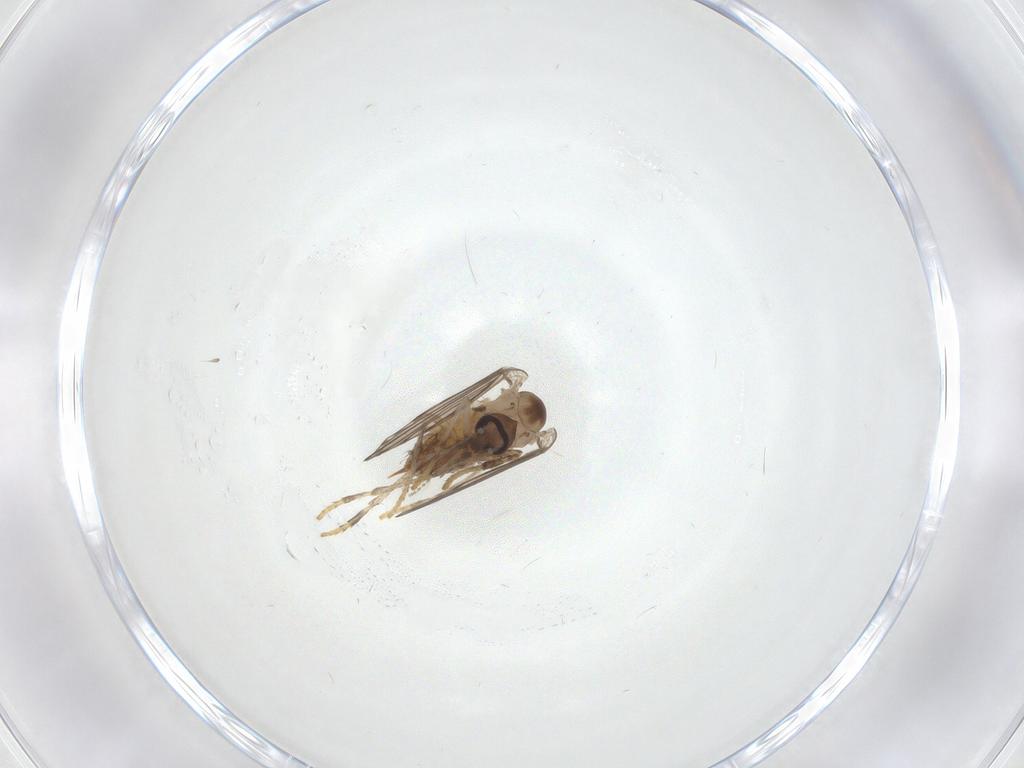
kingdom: Animalia
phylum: Arthropoda
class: Insecta
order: Diptera
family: Psychodidae
